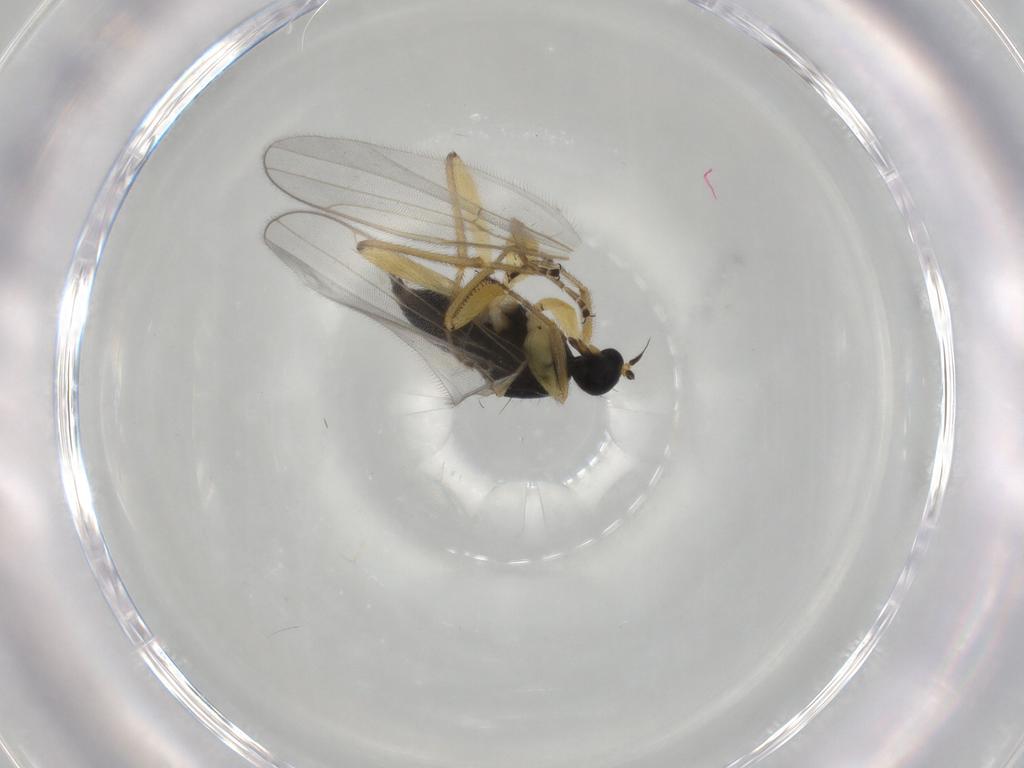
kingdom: Animalia
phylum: Arthropoda
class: Insecta
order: Diptera
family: Hybotidae
